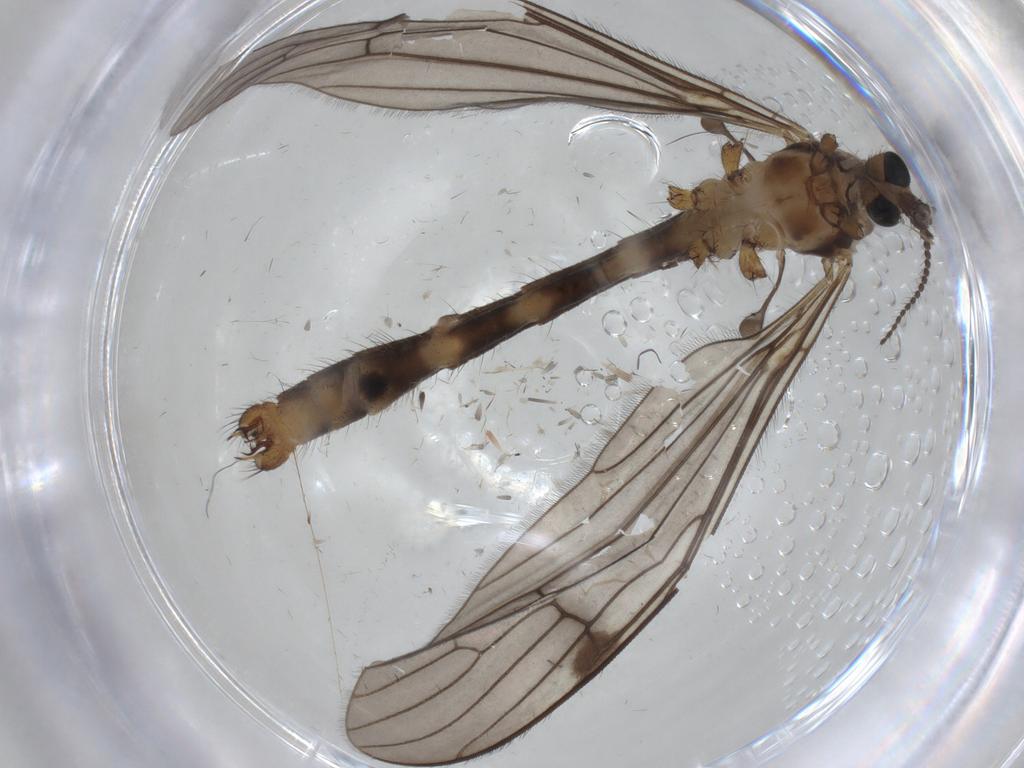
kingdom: Animalia
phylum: Arthropoda
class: Insecta
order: Diptera
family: Limoniidae
